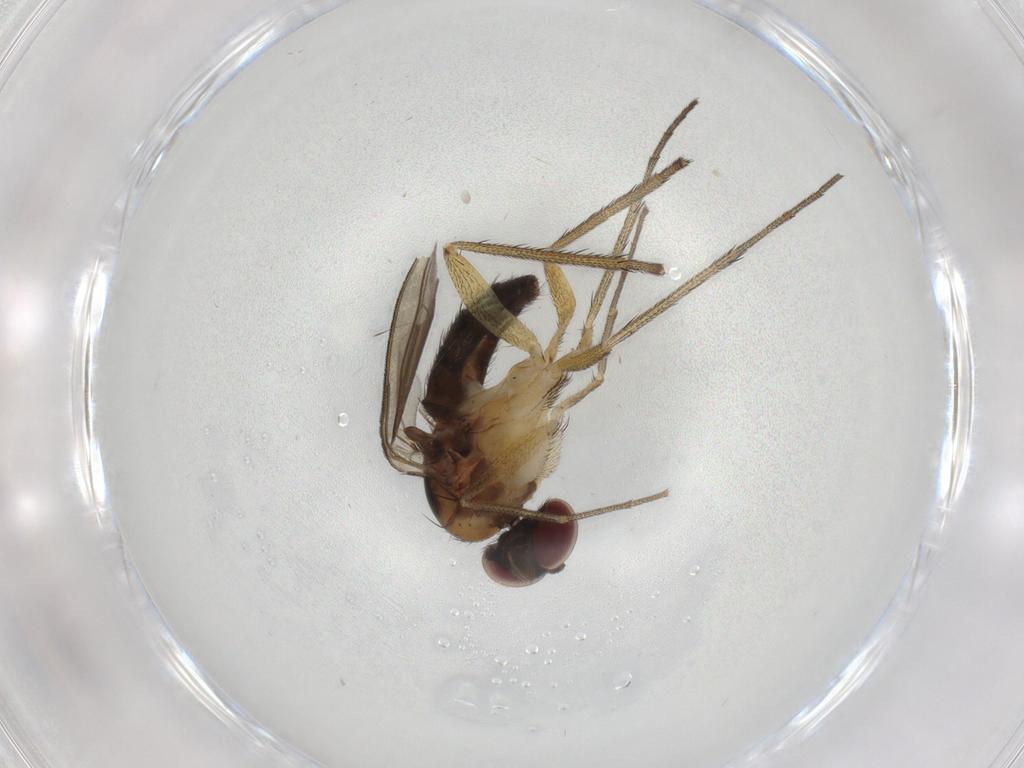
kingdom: Animalia
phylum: Arthropoda
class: Insecta
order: Diptera
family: Dolichopodidae
